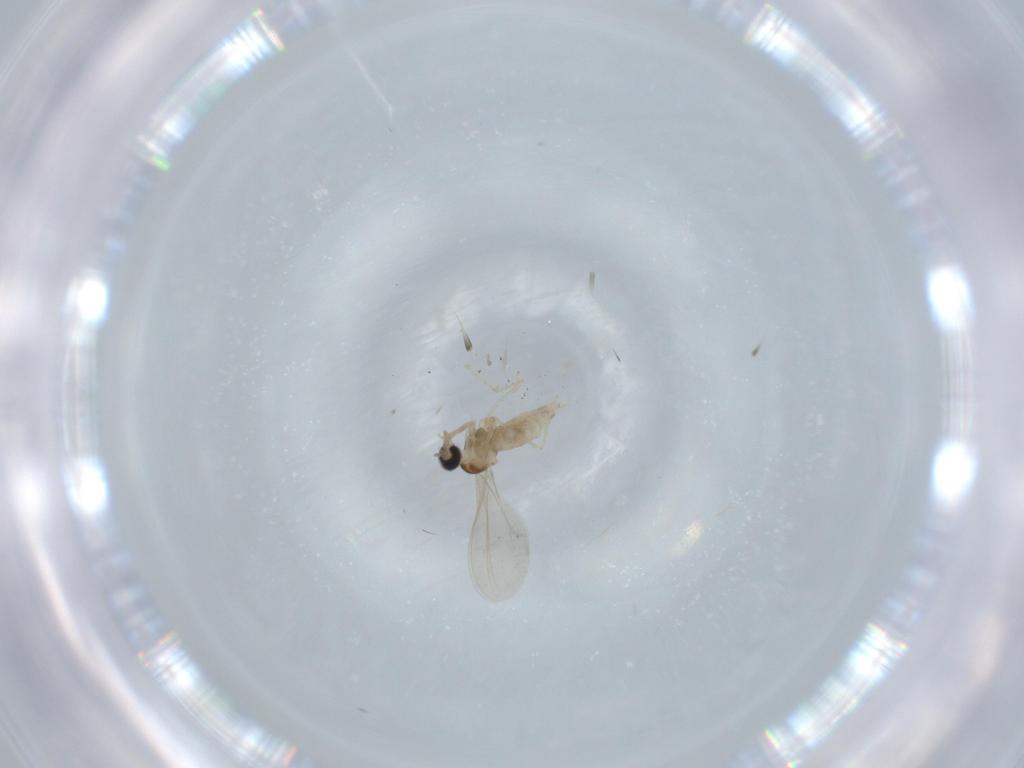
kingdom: Animalia
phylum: Arthropoda
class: Insecta
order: Diptera
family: Cecidomyiidae
